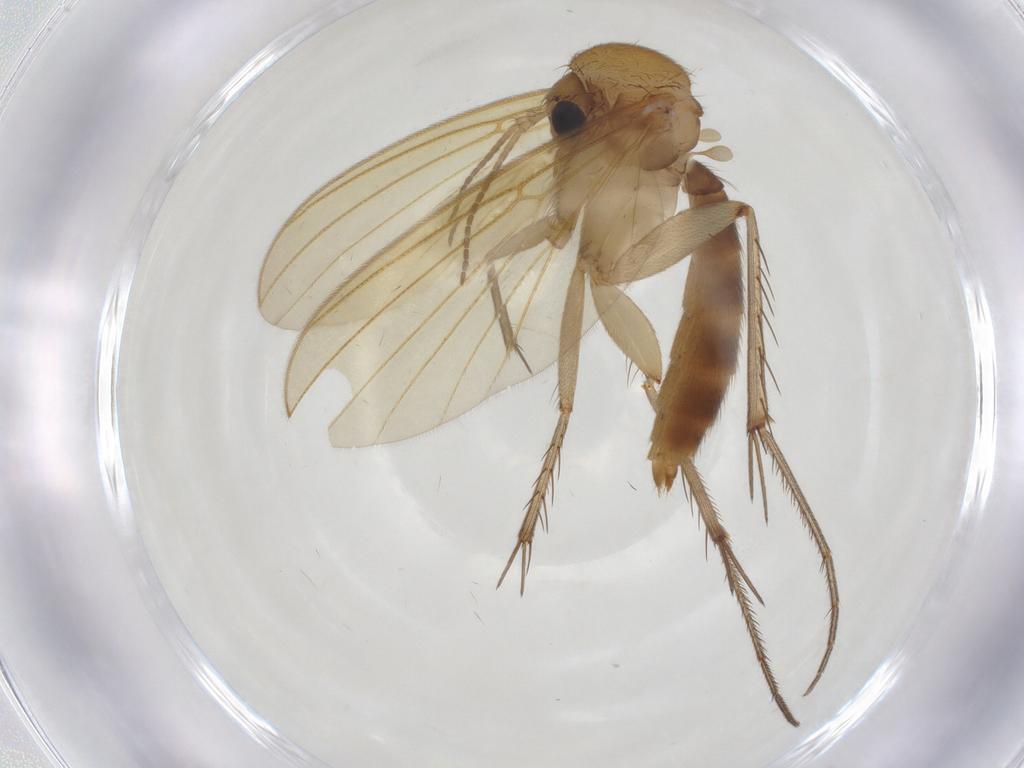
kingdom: Animalia
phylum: Arthropoda
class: Insecta
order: Diptera
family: Mycetophilidae
